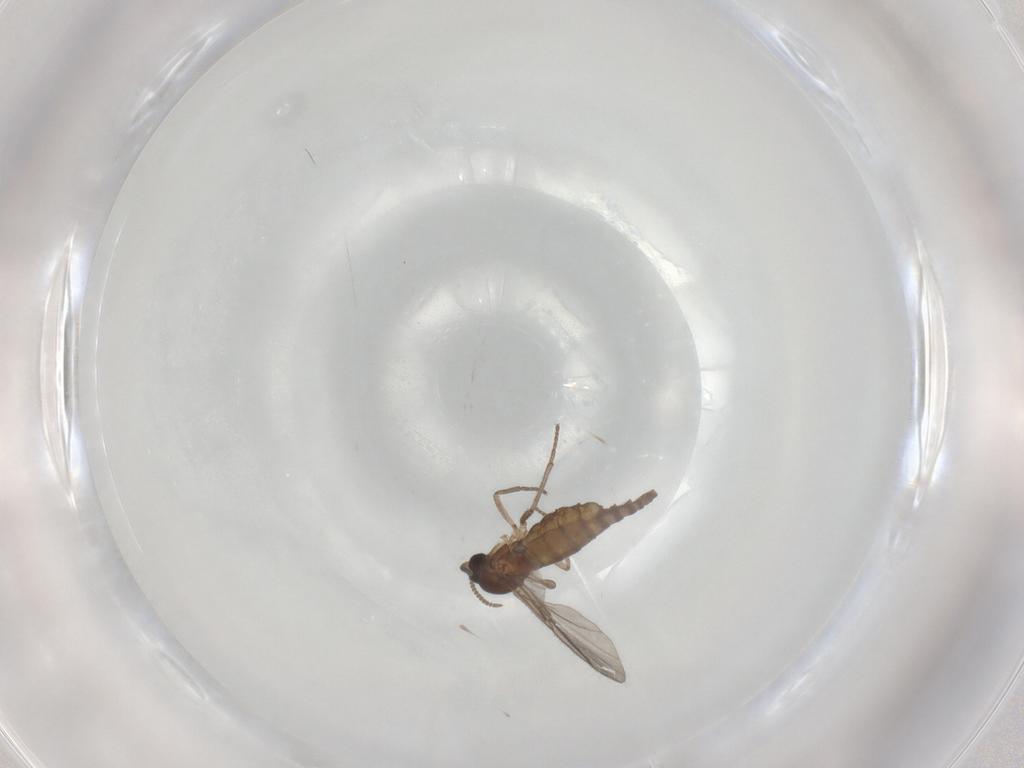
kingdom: Animalia
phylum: Arthropoda
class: Insecta
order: Diptera
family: Sciaridae
